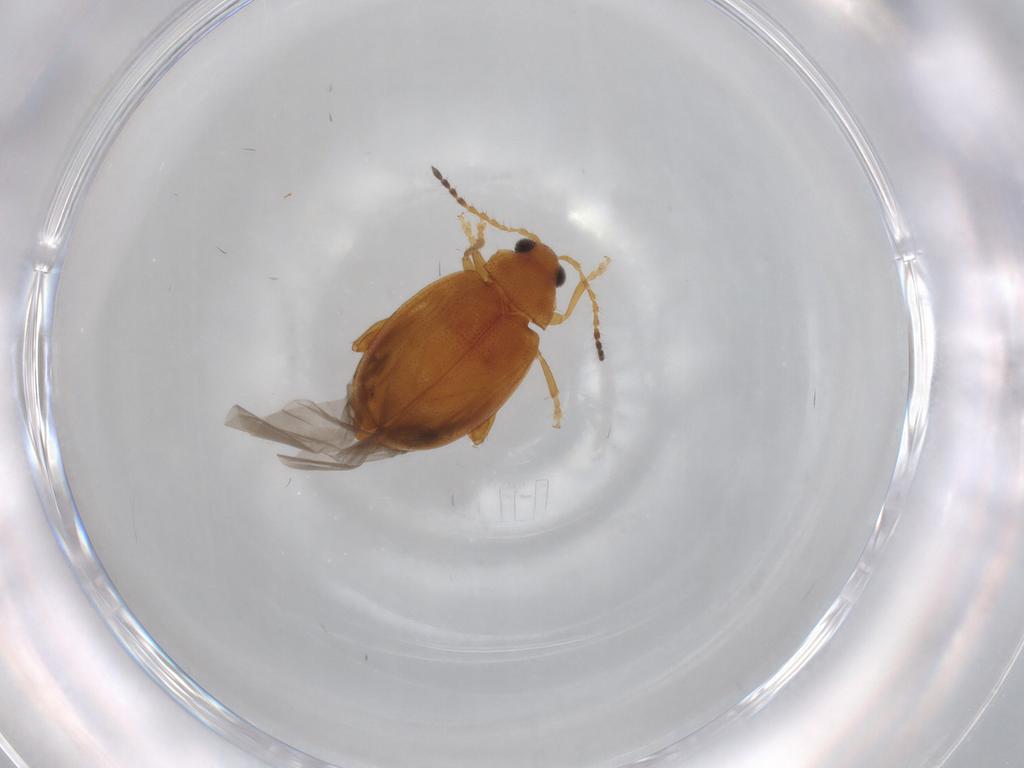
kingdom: Animalia
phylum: Arthropoda
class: Insecta
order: Coleoptera
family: Chrysomelidae
